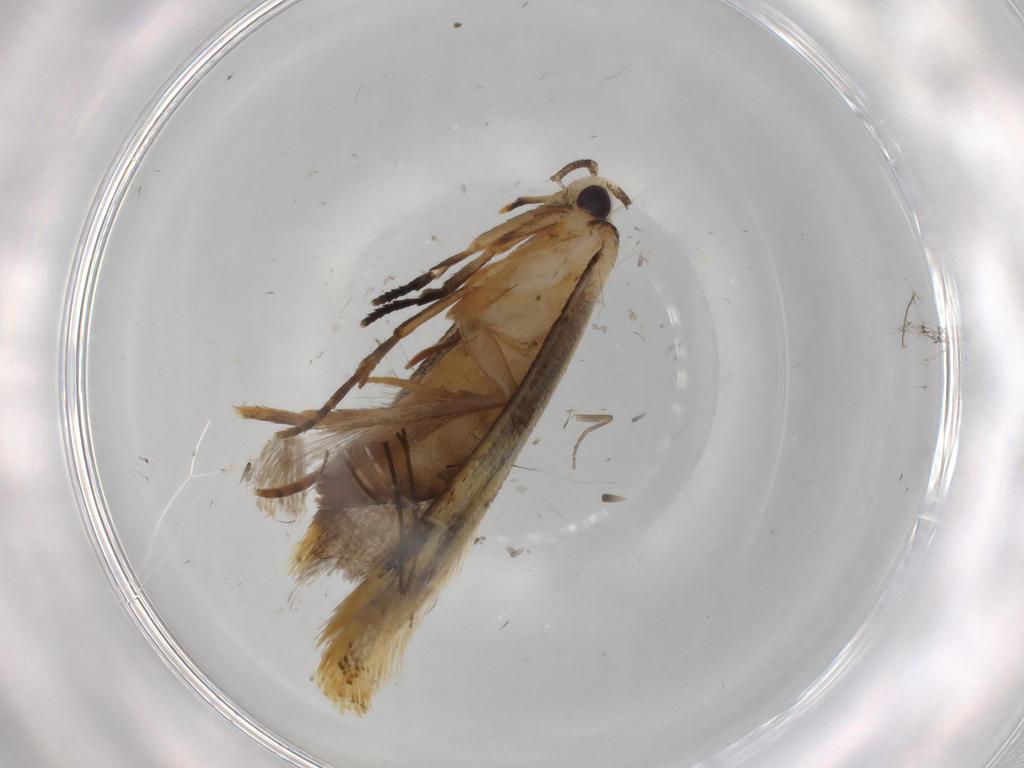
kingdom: Animalia
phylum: Arthropoda
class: Insecta
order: Lepidoptera
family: Tineidae
